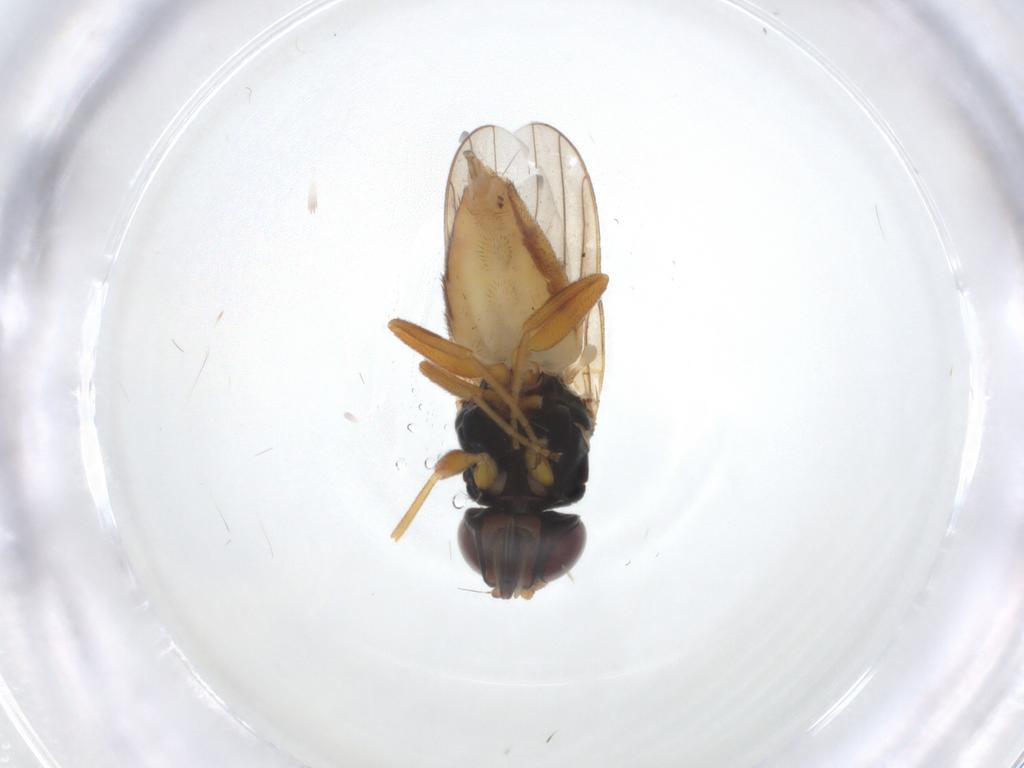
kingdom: Animalia
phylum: Arthropoda
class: Insecta
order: Diptera
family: Chloropidae
